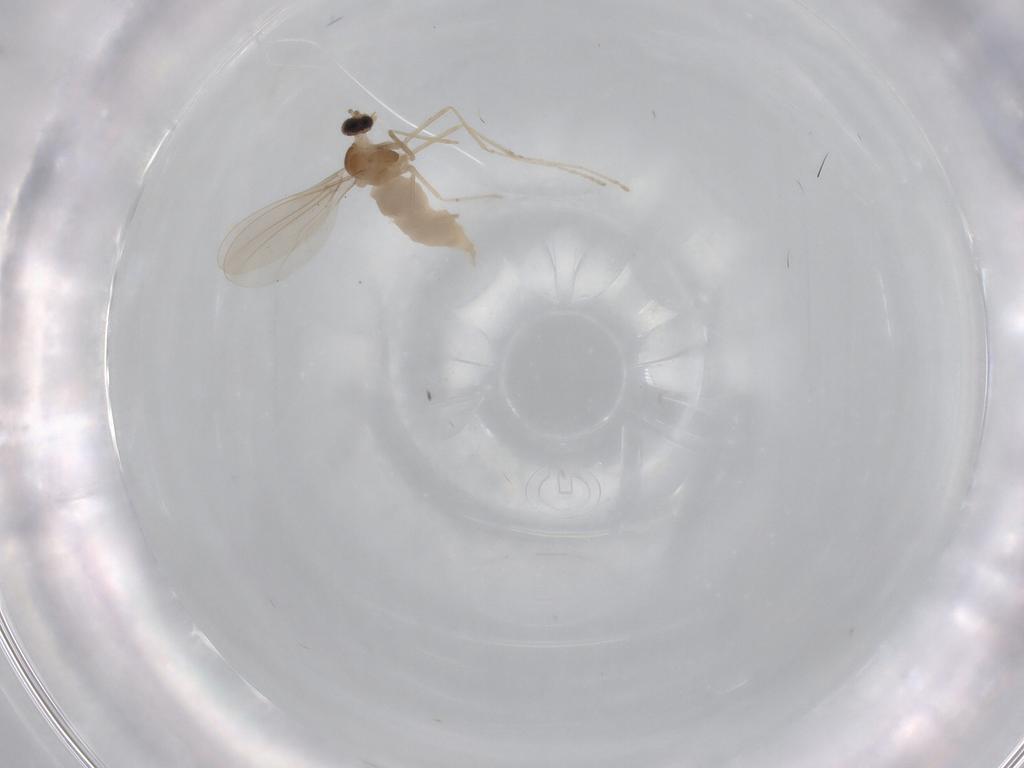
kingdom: Animalia
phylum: Arthropoda
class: Insecta
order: Diptera
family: Cecidomyiidae
